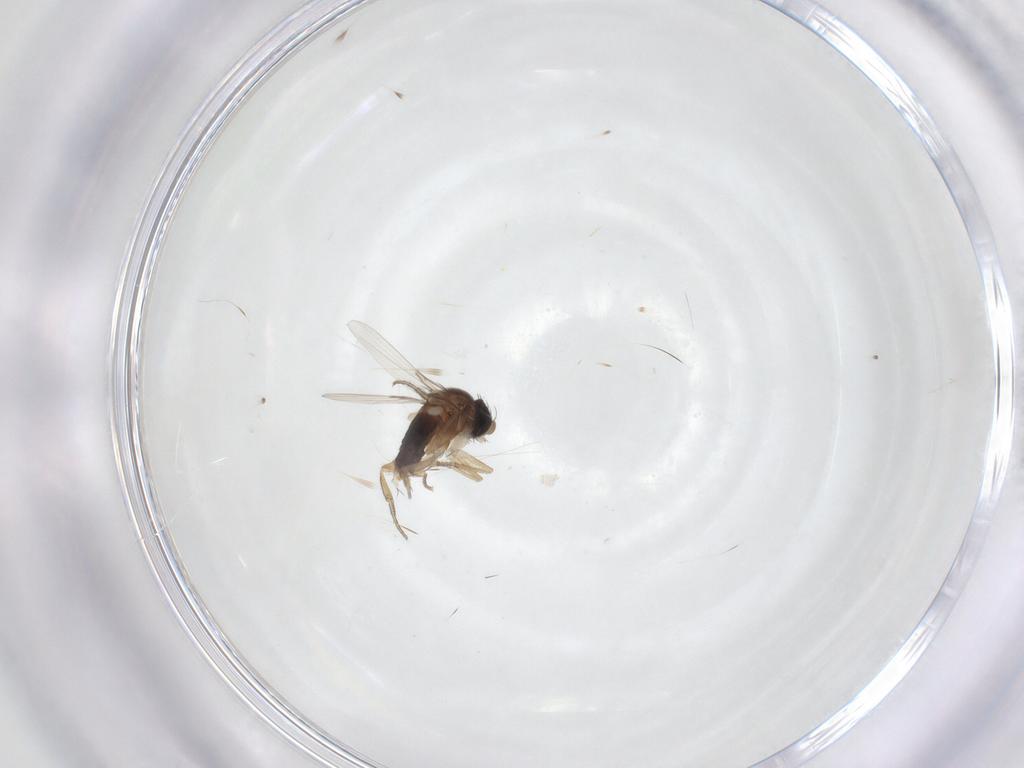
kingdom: Animalia
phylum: Arthropoda
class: Insecta
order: Diptera
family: Phoridae
